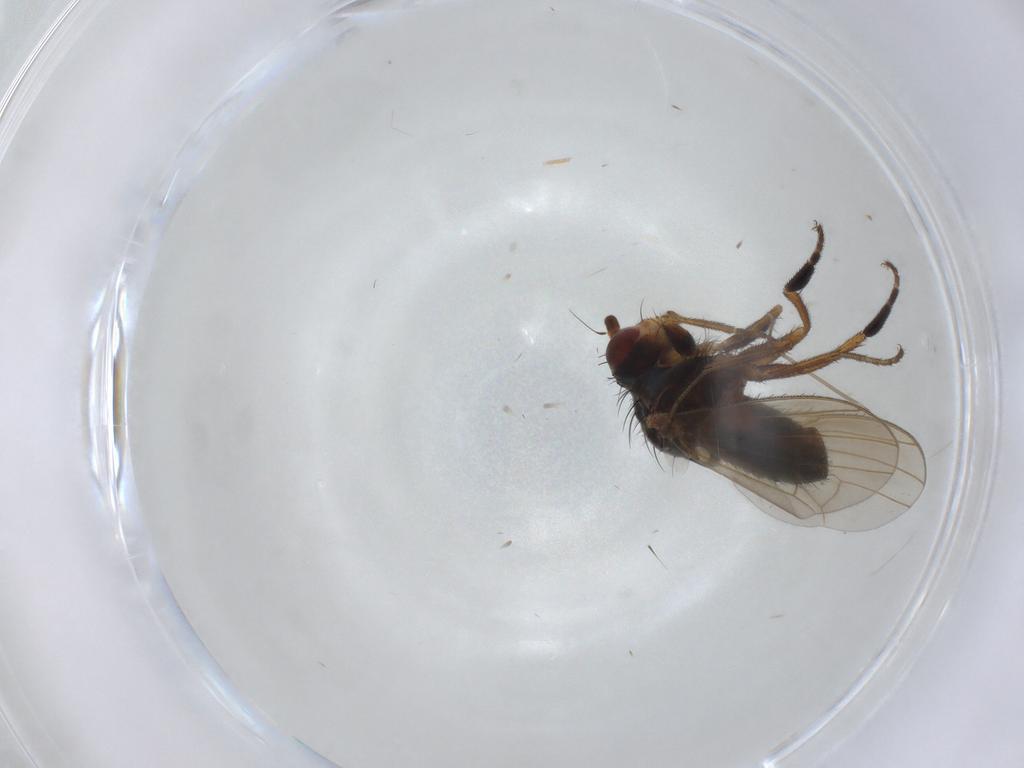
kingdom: Animalia
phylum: Arthropoda
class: Insecta
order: Diptera
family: Heleomyzidae
